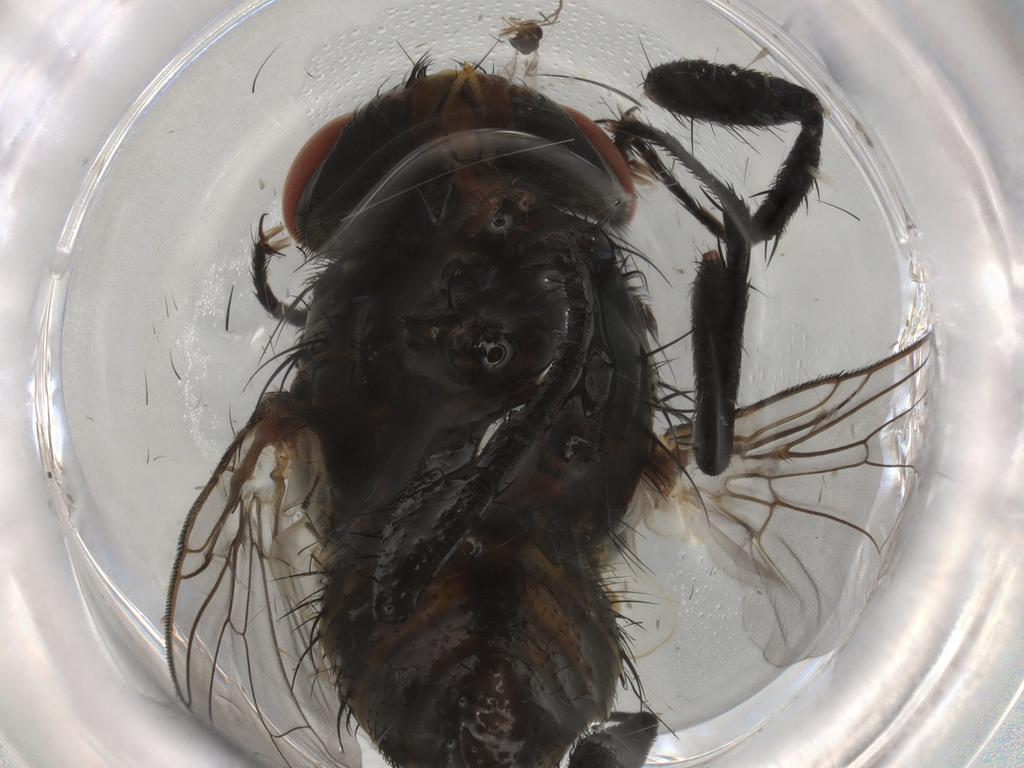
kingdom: Animalia
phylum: Arthropoda
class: Insecta
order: Diptera
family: Sarcophagidae
